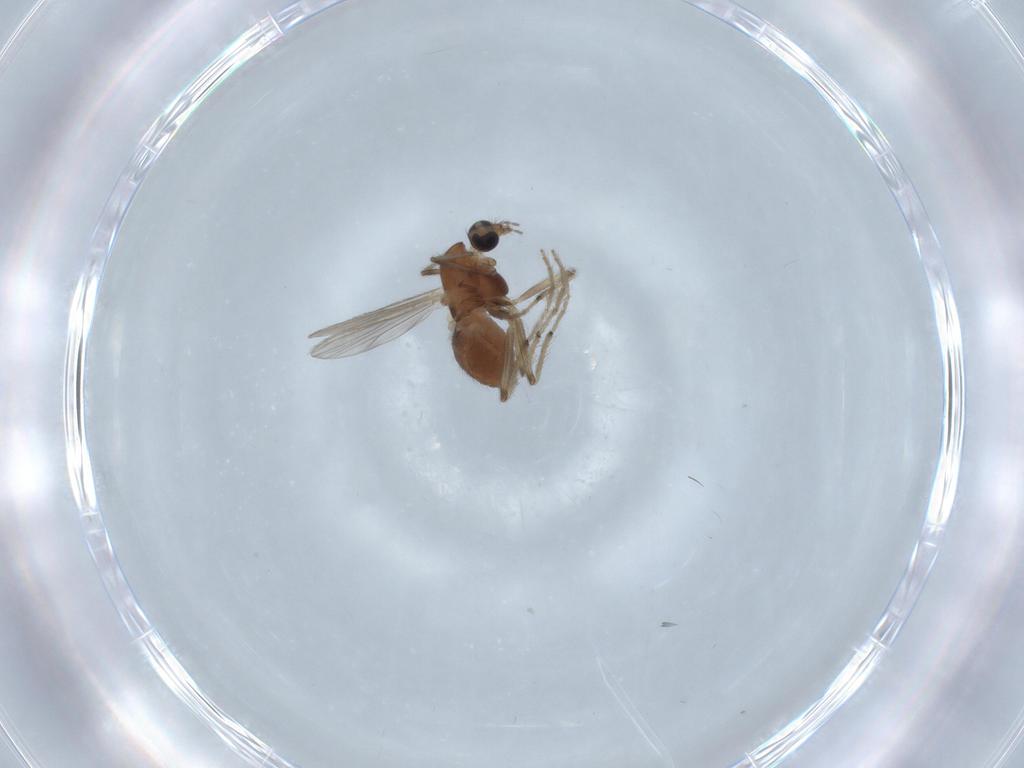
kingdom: Animalia
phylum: Arthropoda
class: Insecta
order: Diptera
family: Chironomidae
